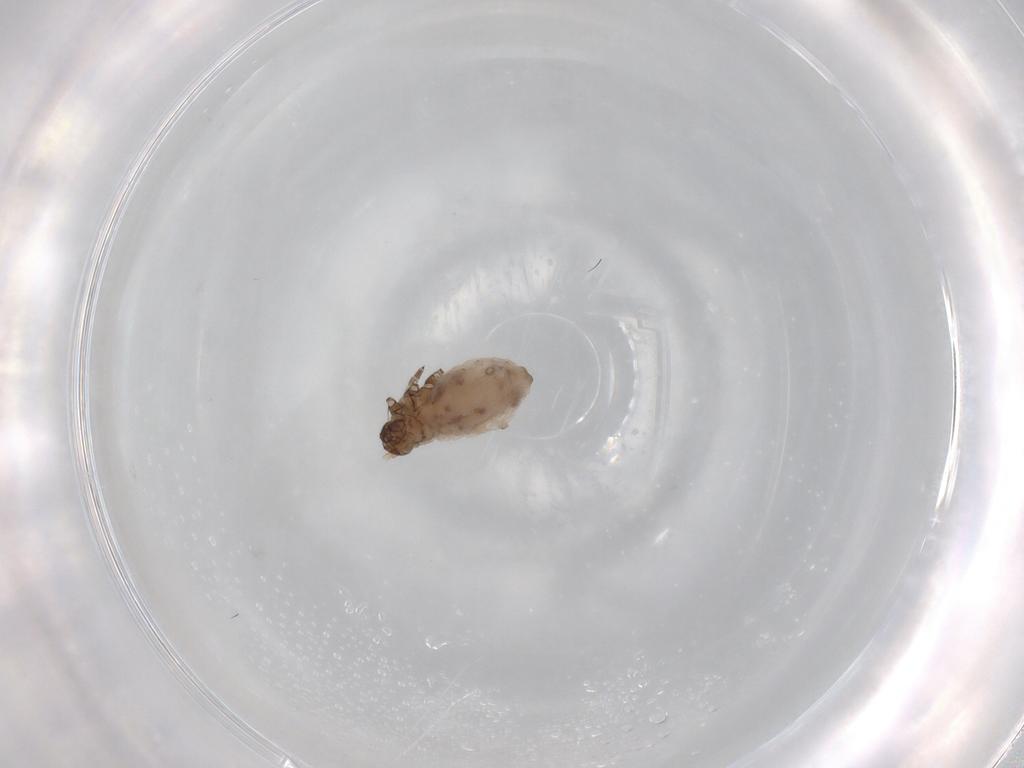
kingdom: Animalia
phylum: Arthropoda
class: Insecta
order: Hemiptera
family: Aphididae
